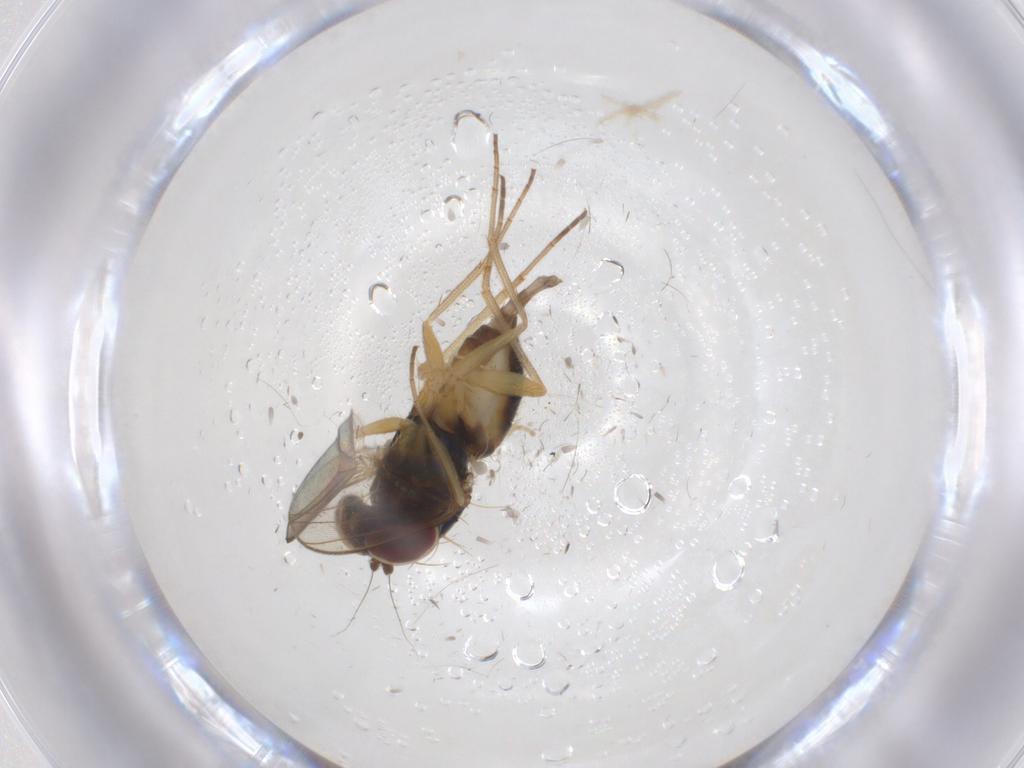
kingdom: Animalia
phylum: Arthropoda
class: Insecta
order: Diptera
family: Dolichopodidae
